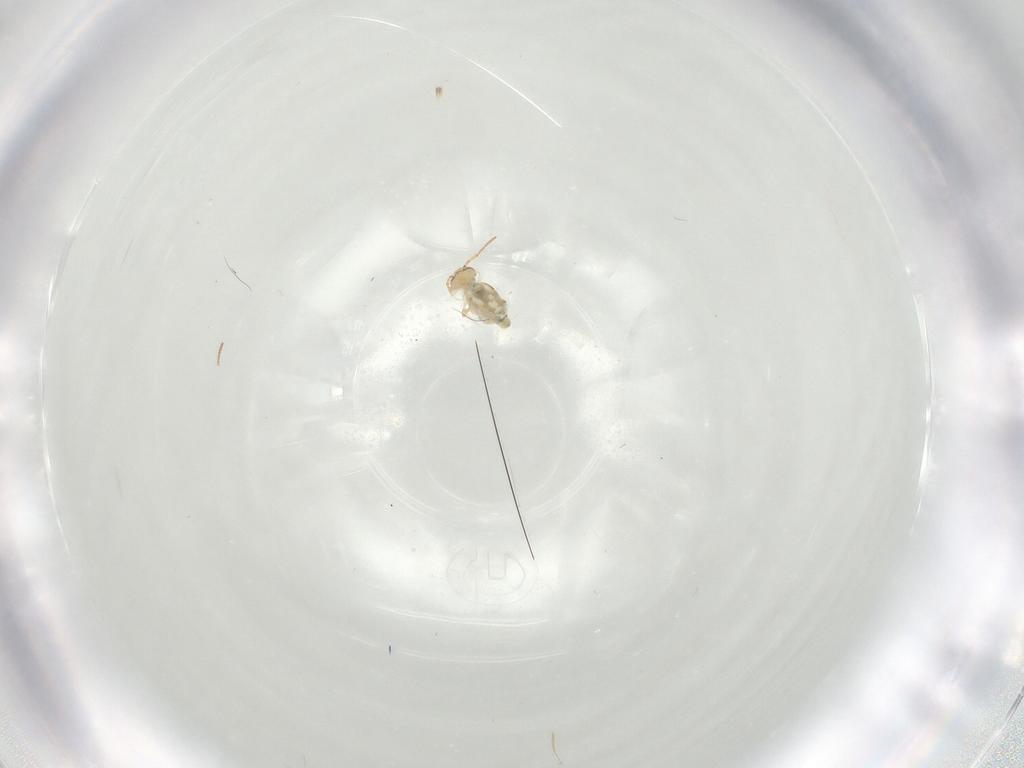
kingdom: Animalia
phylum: Arthropoda
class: Collembola
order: Symphypleona
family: Bourletiellidae
